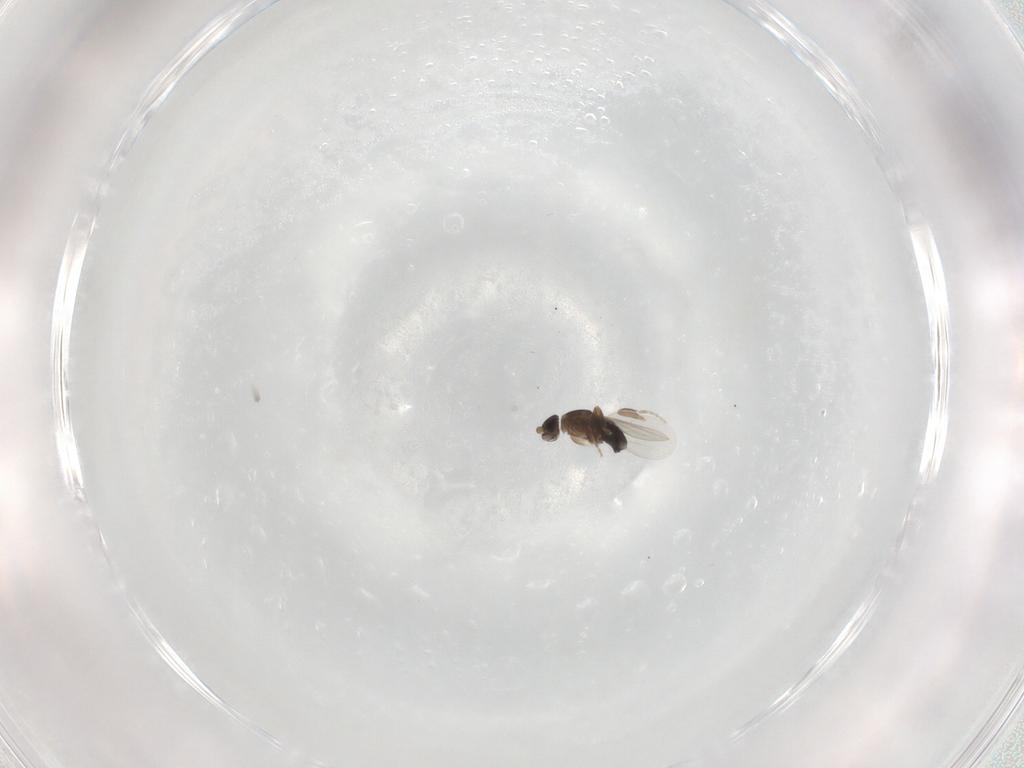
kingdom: Animalia
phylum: Arthropoda
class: Insecta
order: Diptera
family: Phoridae
